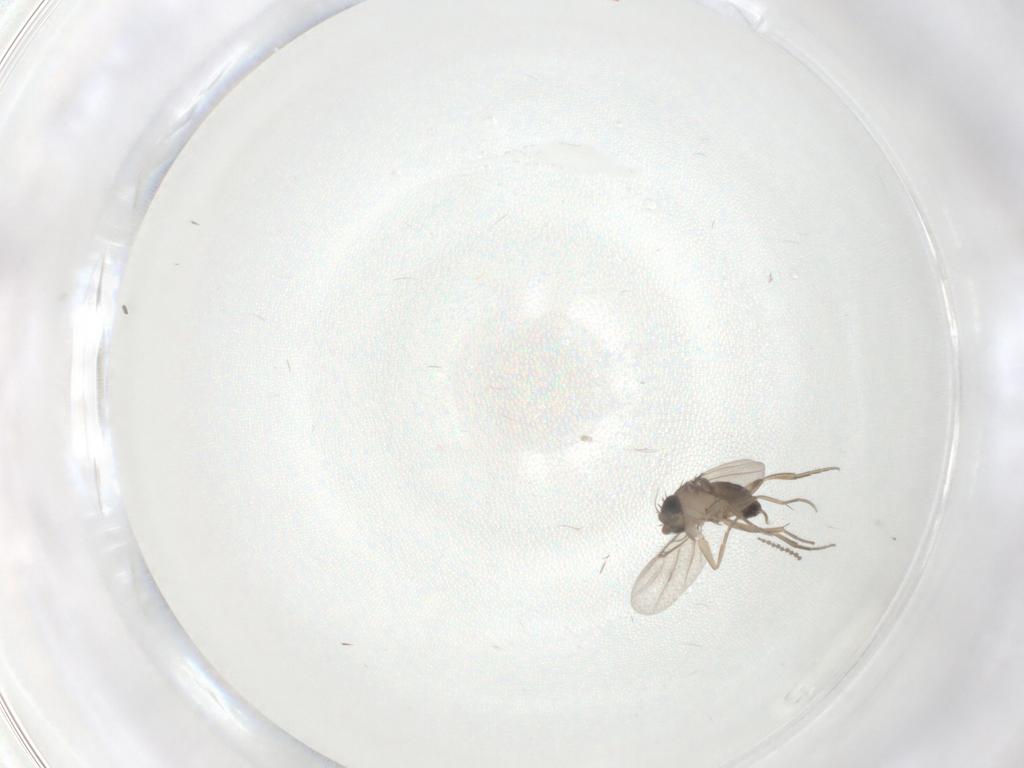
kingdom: Animalia
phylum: Arthropoda
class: Insecta
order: Diptera
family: Phoridae
